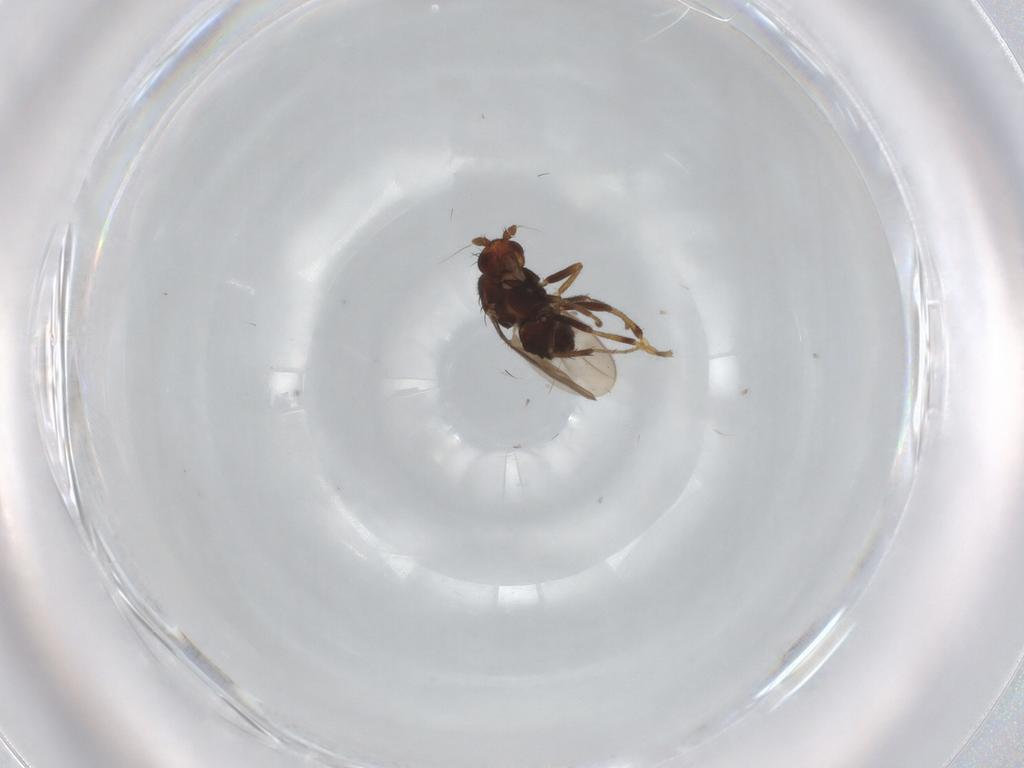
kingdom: Animalia
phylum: Arthropoda
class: Insecta
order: Diptera
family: Sphaeroceridae
